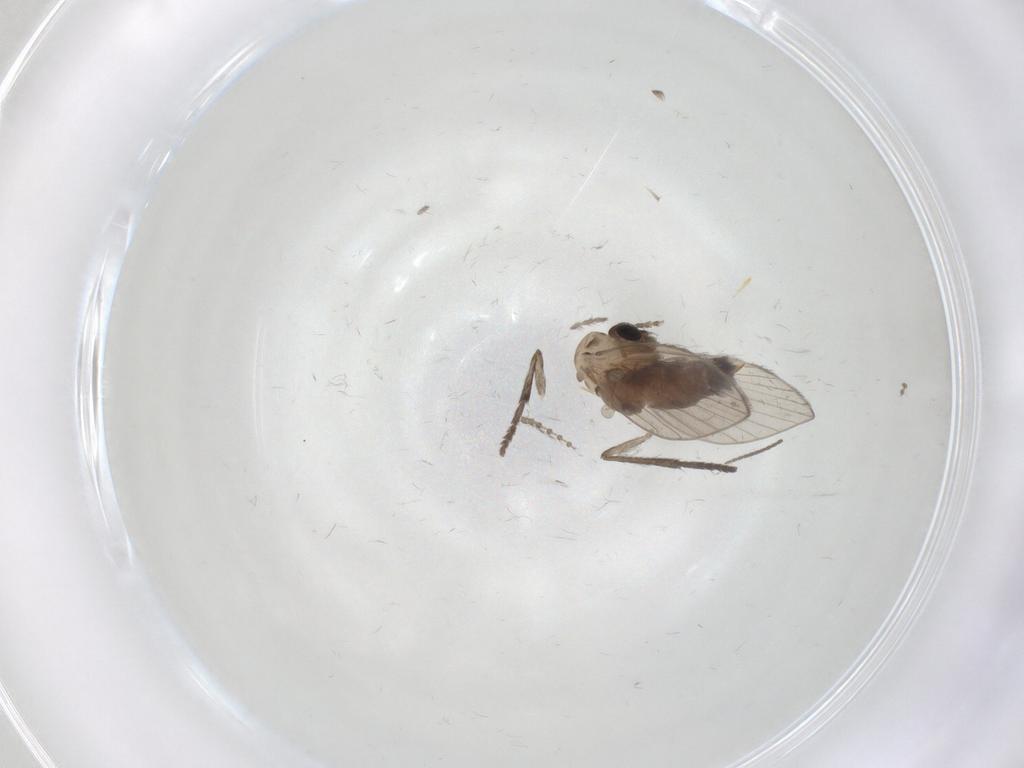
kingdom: Animalia
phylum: Arthropoda
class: Insecta
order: Diptera
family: Psychodidae
